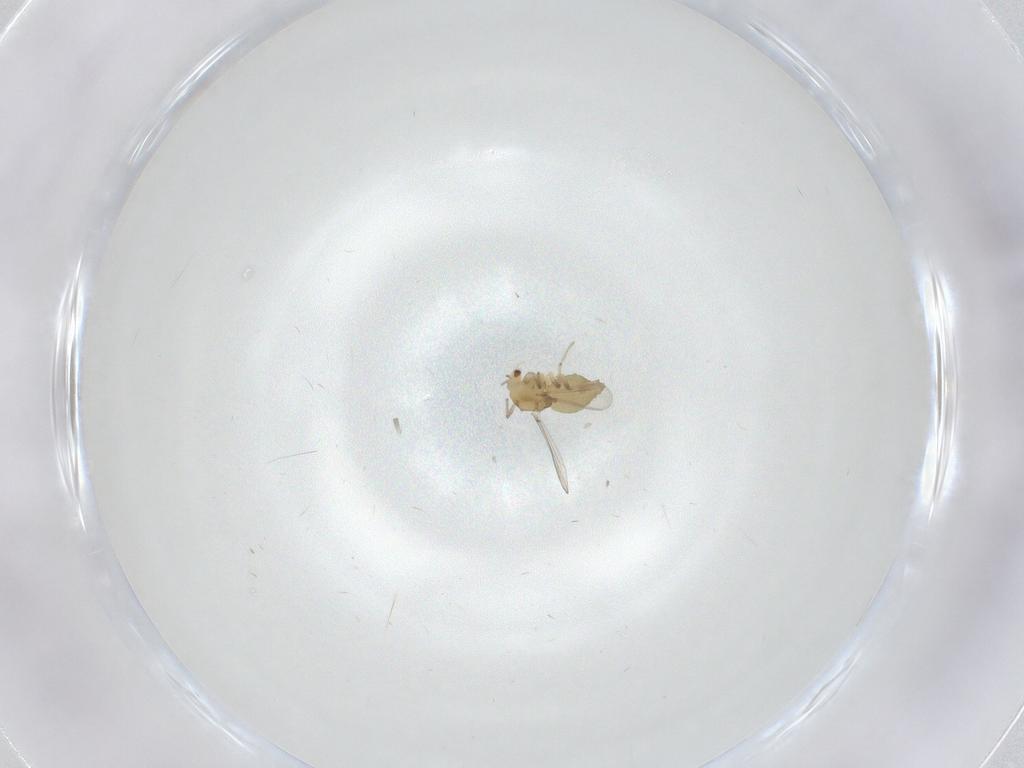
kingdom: Animalia
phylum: Arthropoda
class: Insecta
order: Diptera
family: Chironomidae
